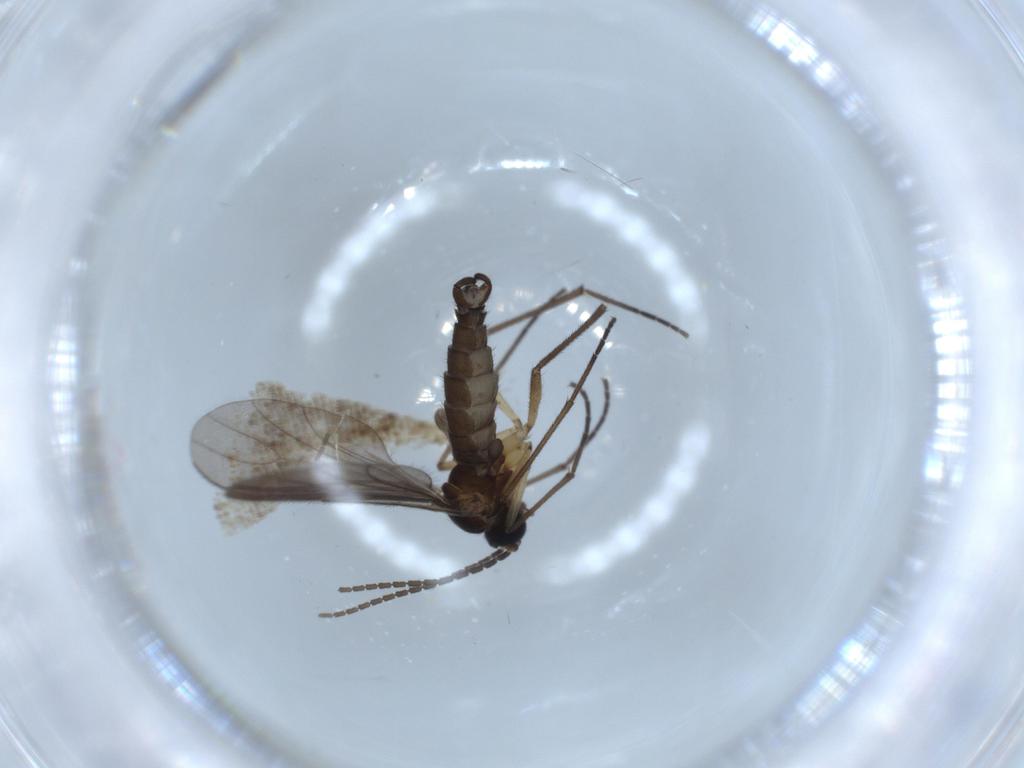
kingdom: Animalia
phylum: Arthropoda
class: Insecta
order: Diptera
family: Sciaridae
